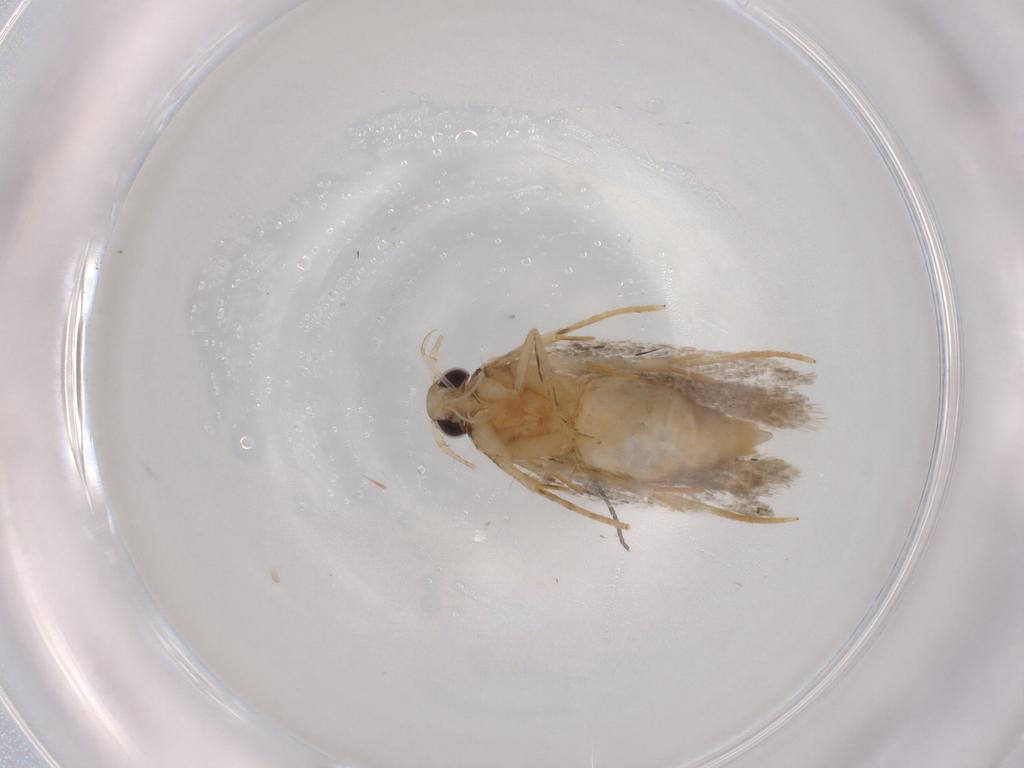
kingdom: Animalia
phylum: Arthropoda
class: Insecta
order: Lepidoptera
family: Autostichidae
